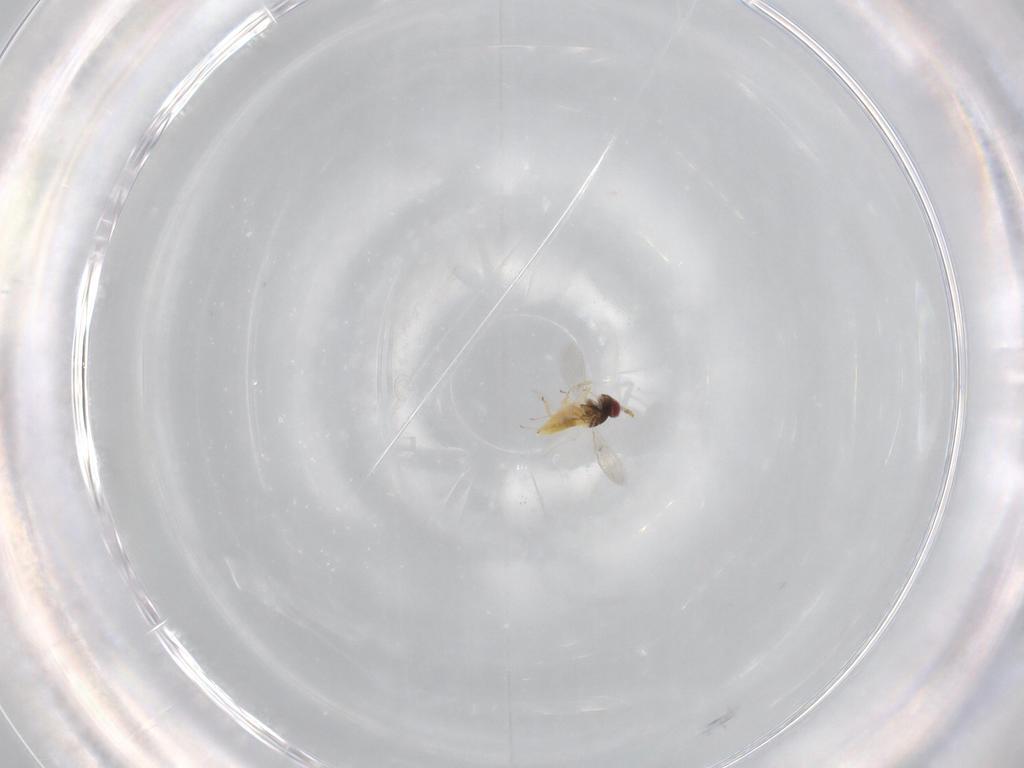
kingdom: Animalia
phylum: Arthropoda
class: Insecta
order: Hymenoptera
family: Trichogrammatidae
